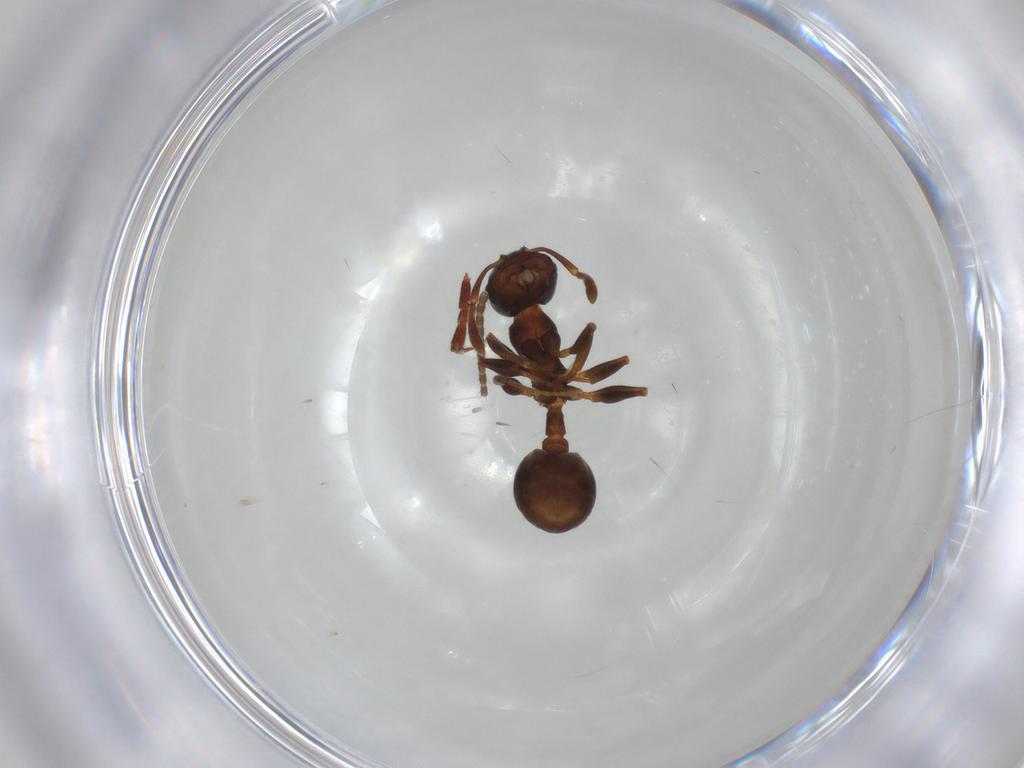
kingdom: Animalia
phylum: Arthropoda
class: Insecta
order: Hymenoptera
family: Formicidae
